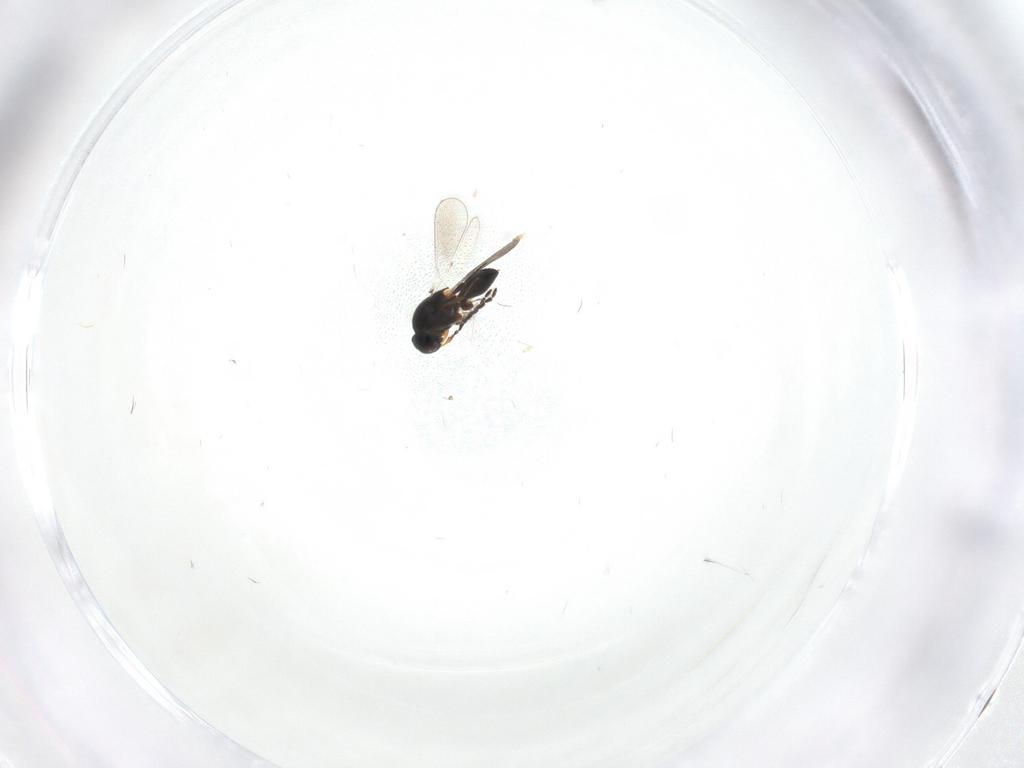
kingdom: Animalia
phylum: Arthropoda
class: Insecta
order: Hymenoptera
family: Platygastridae
